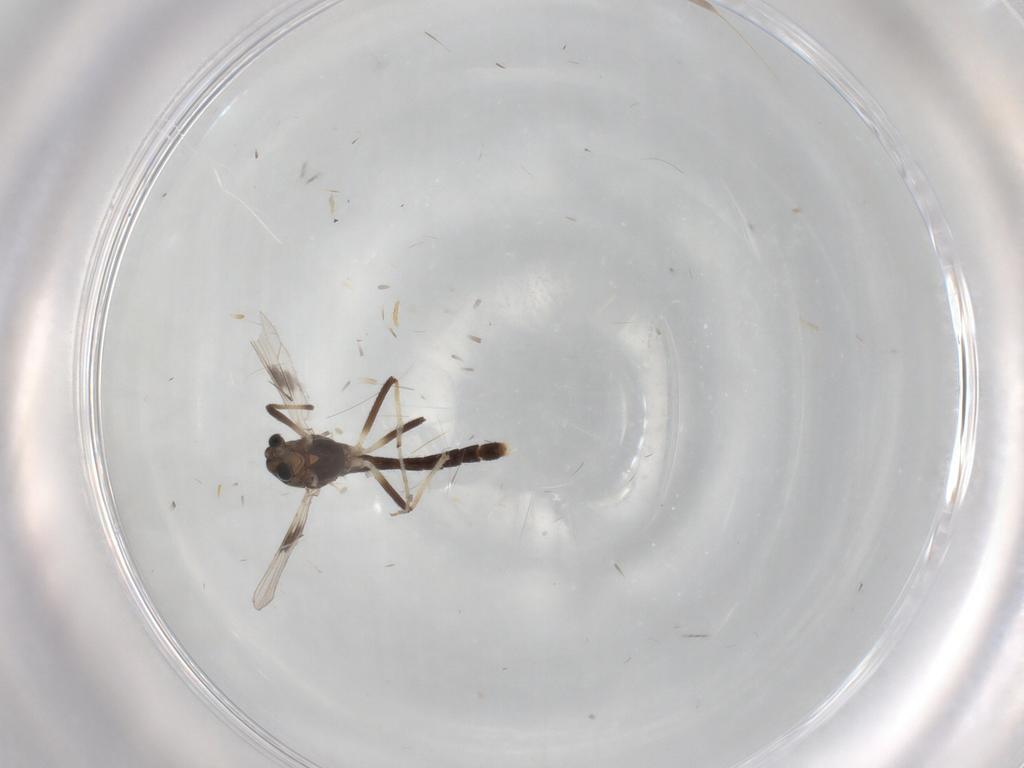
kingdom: Animalia
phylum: Arthropoda
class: Insecta
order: Diptera
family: Chironomidae
